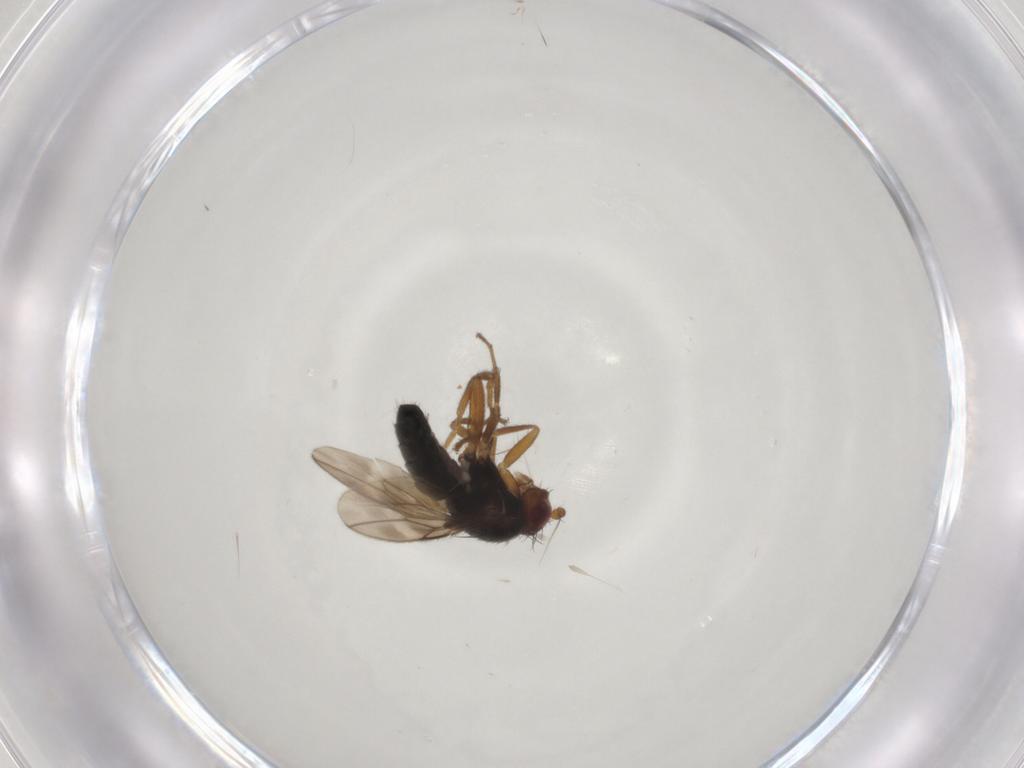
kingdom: Animalia
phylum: Arthropoda
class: Insecta
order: Diptera
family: Sphaeroceridae
